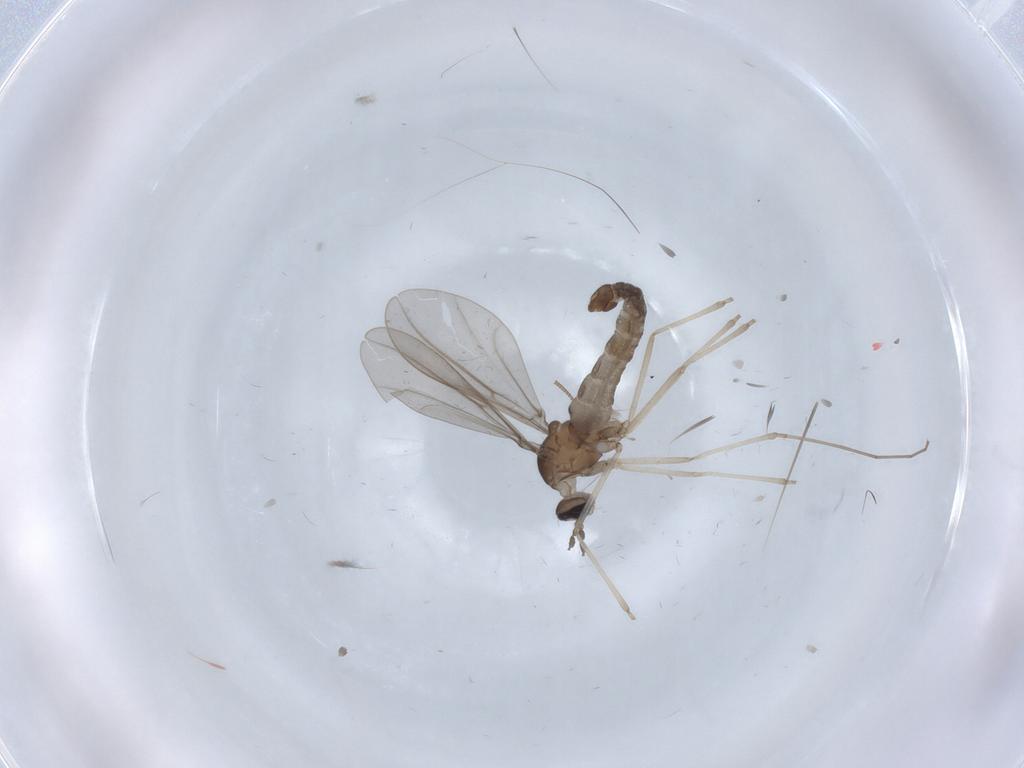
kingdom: Animalia
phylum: Arthropoda
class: Insecta
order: Diptera
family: Cecidomyiidae
